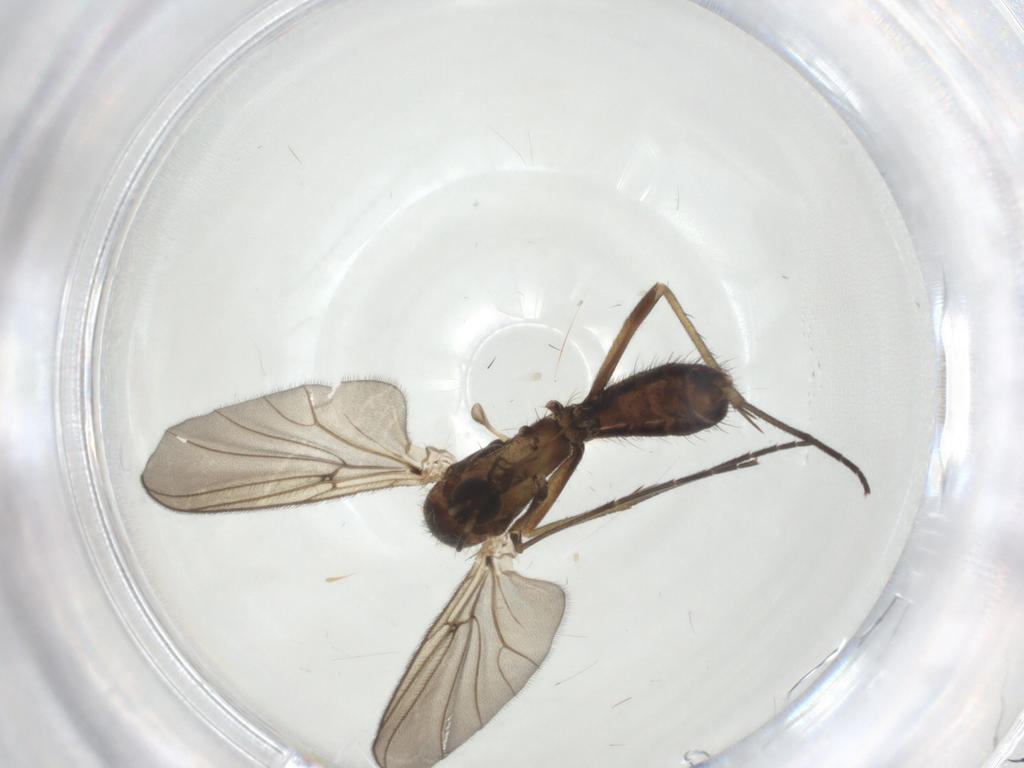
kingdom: Animalia
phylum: Arthropoda
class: Insecta
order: Diptera
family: Mycetophilidae
